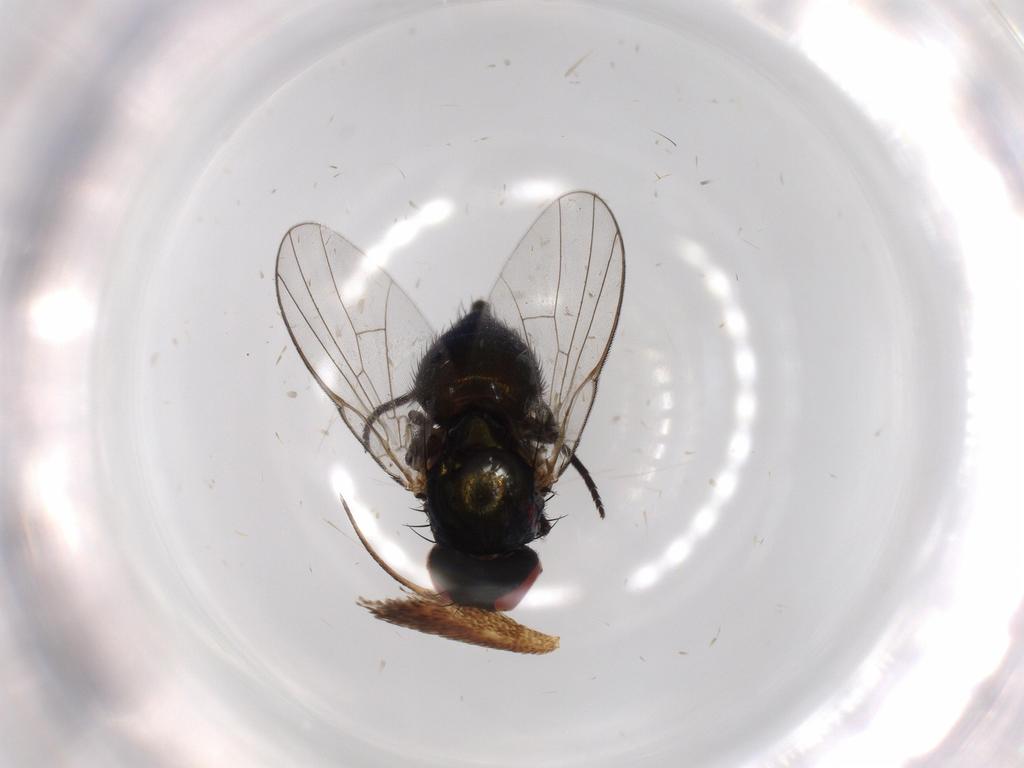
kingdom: Animalia
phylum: Arthropoda
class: Insecta
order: Diptera
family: Agromyzidae
